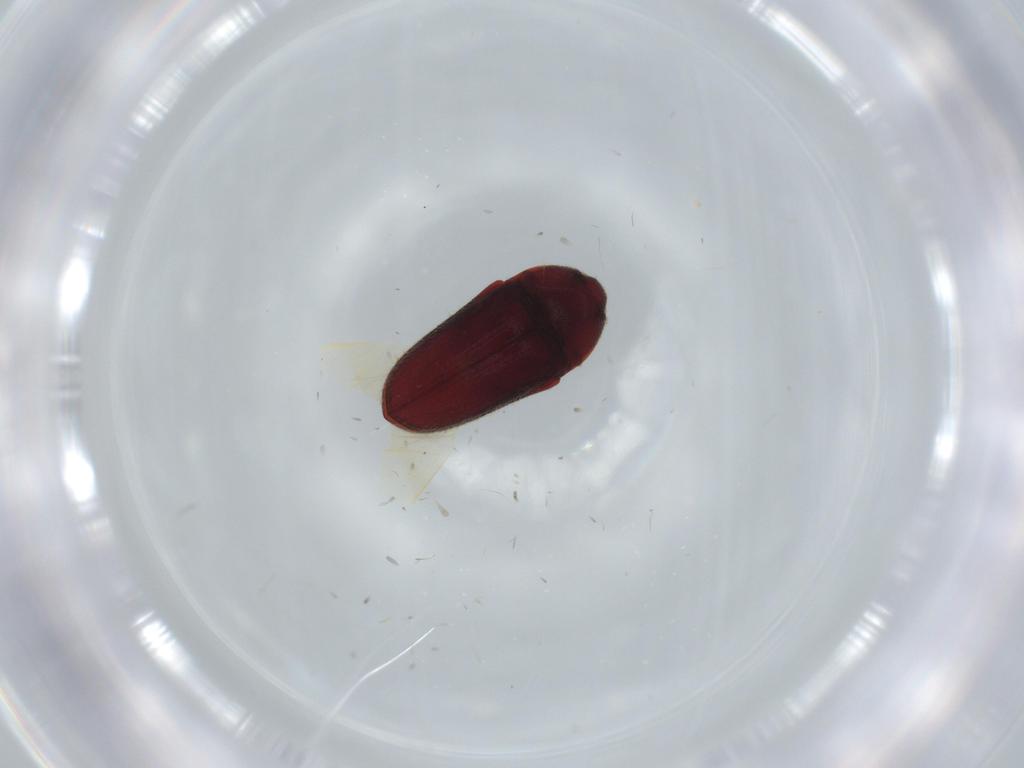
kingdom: Animalia
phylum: Arthropoda
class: Insecta
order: Coleoptera
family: Throscidae
